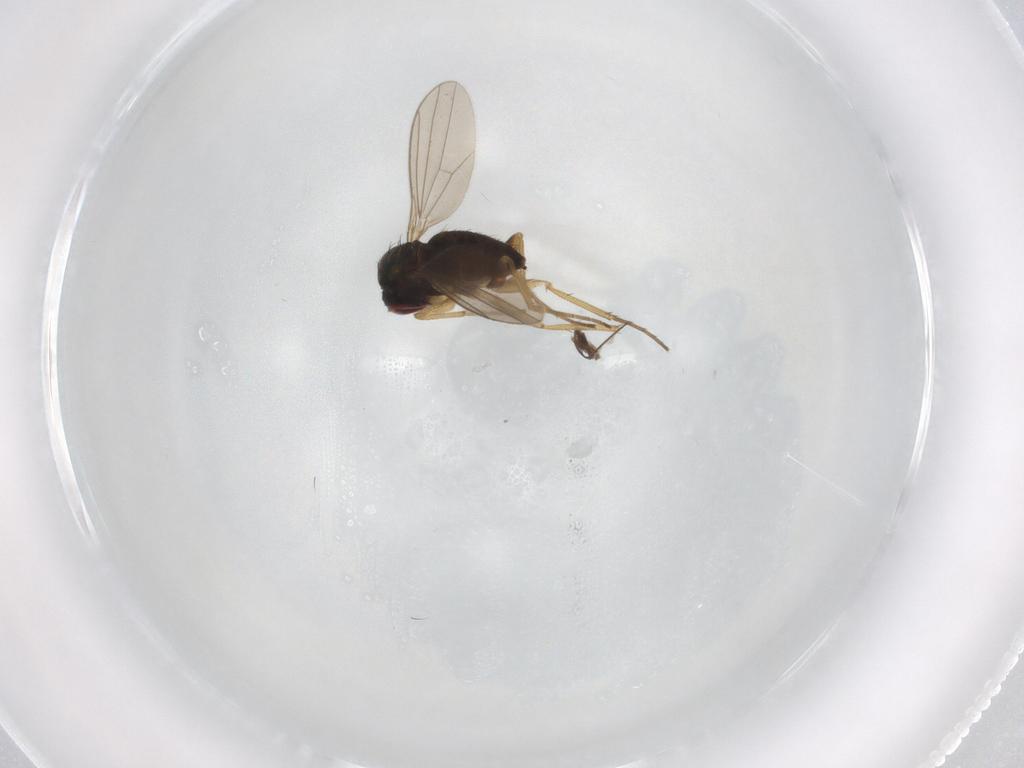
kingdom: Animalia
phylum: Arthropoda
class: Insecta
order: Diptera
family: Dolichopodidae
